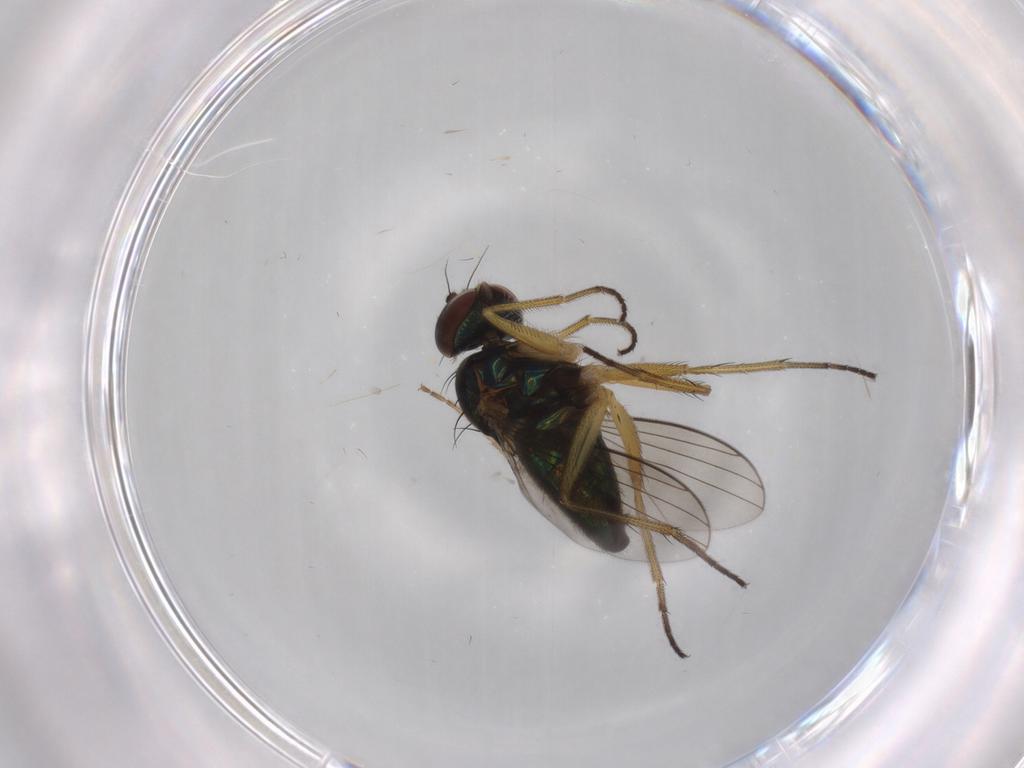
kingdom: Animalia
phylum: Arthropoda
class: Insecta
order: Diptera
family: Dolichopodidae
